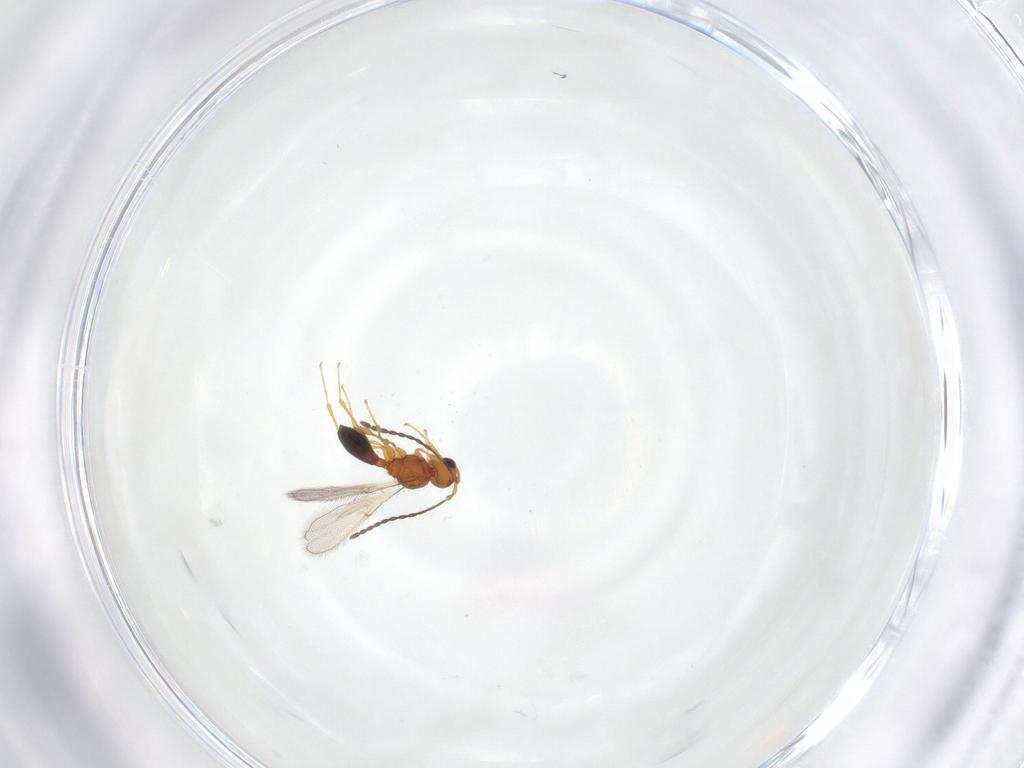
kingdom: Animalia
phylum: Arthropoda
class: Insecta
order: Hymenoptera
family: Diapriidae
